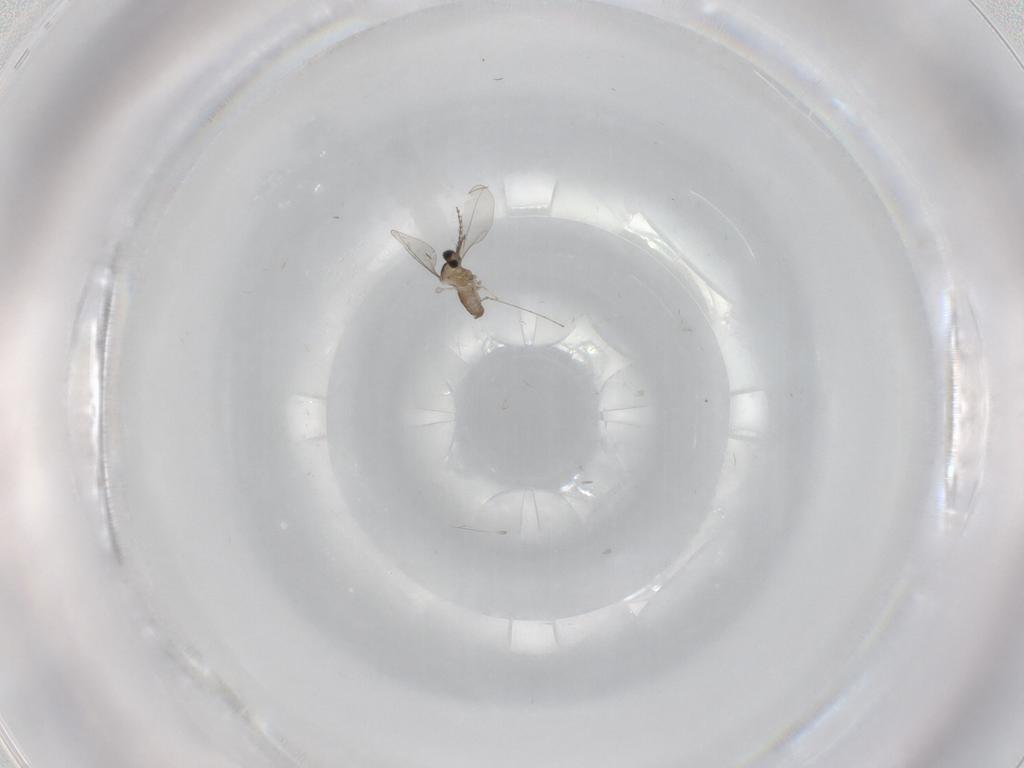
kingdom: Animalia
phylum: Arthropoda
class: Insecta
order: Diptera
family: Cecidomyiidae
